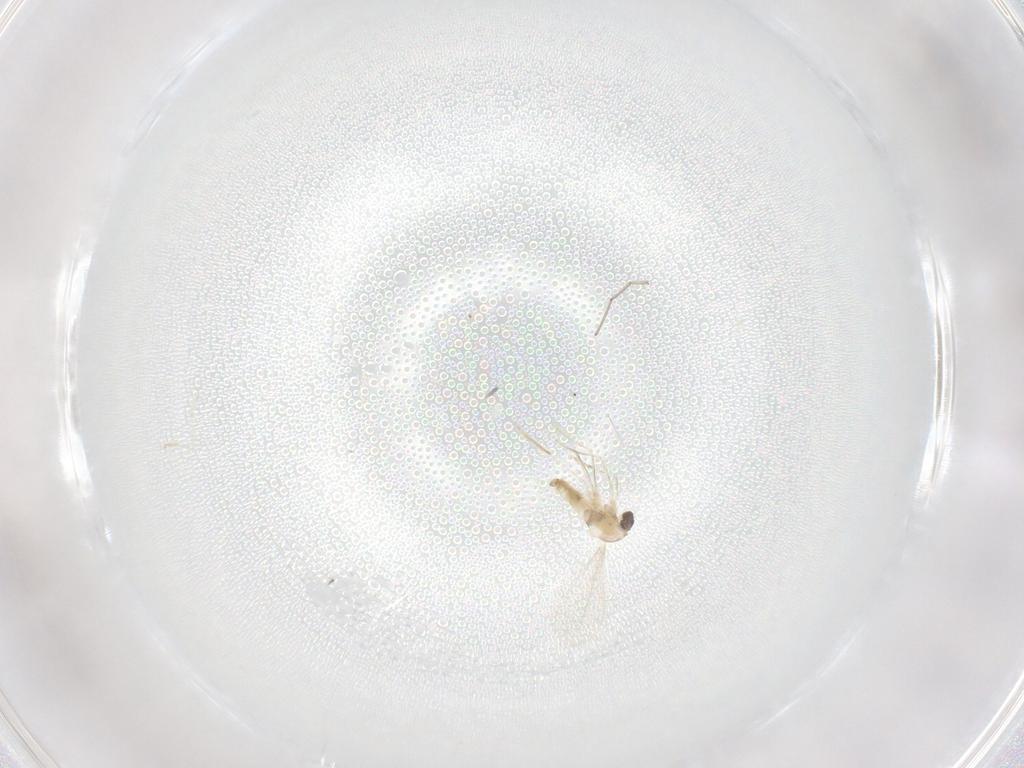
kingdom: Animalia
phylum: Arthropoda
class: Insecta
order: Diptera
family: Cecidomyiidae
